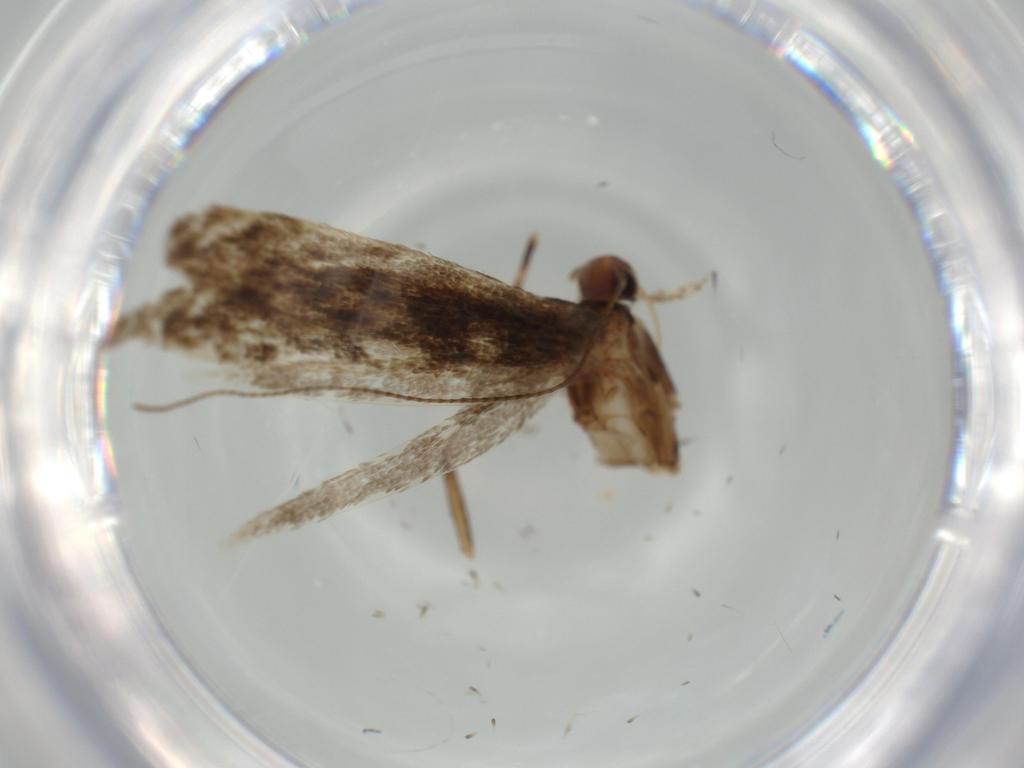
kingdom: Animalia
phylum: Arthropoda
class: Insecta
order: Lepidoptera
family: Gracillariidae
